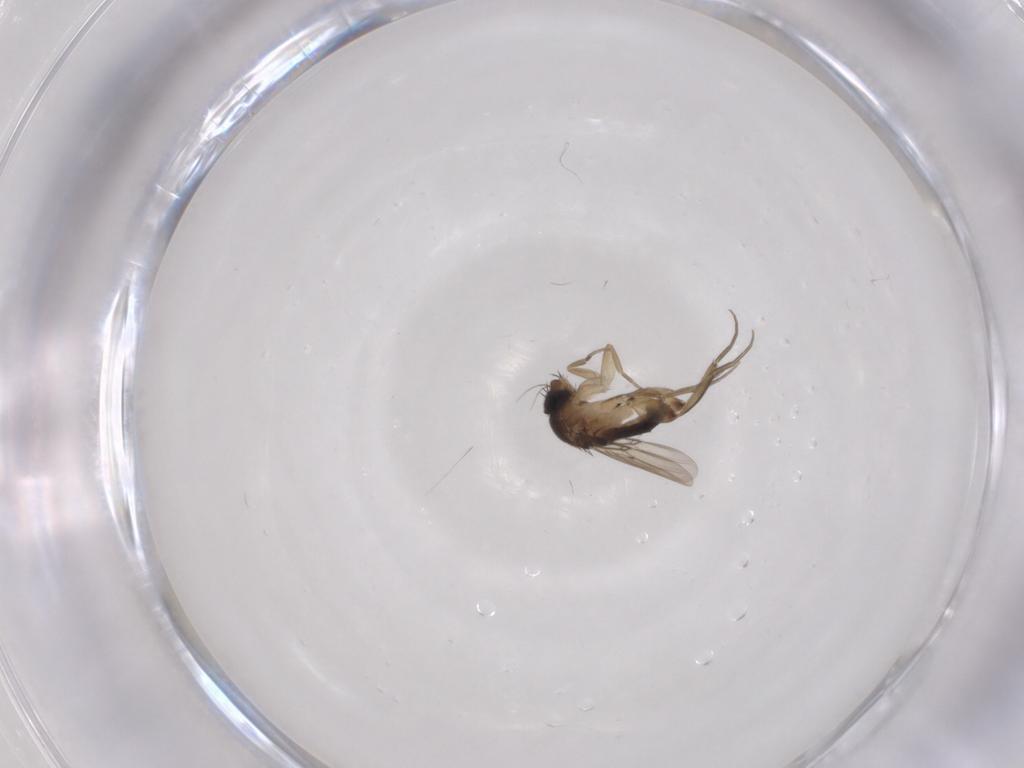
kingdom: Animalia
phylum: Arthropoda
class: Insecta
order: Diptera
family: Phoridae
